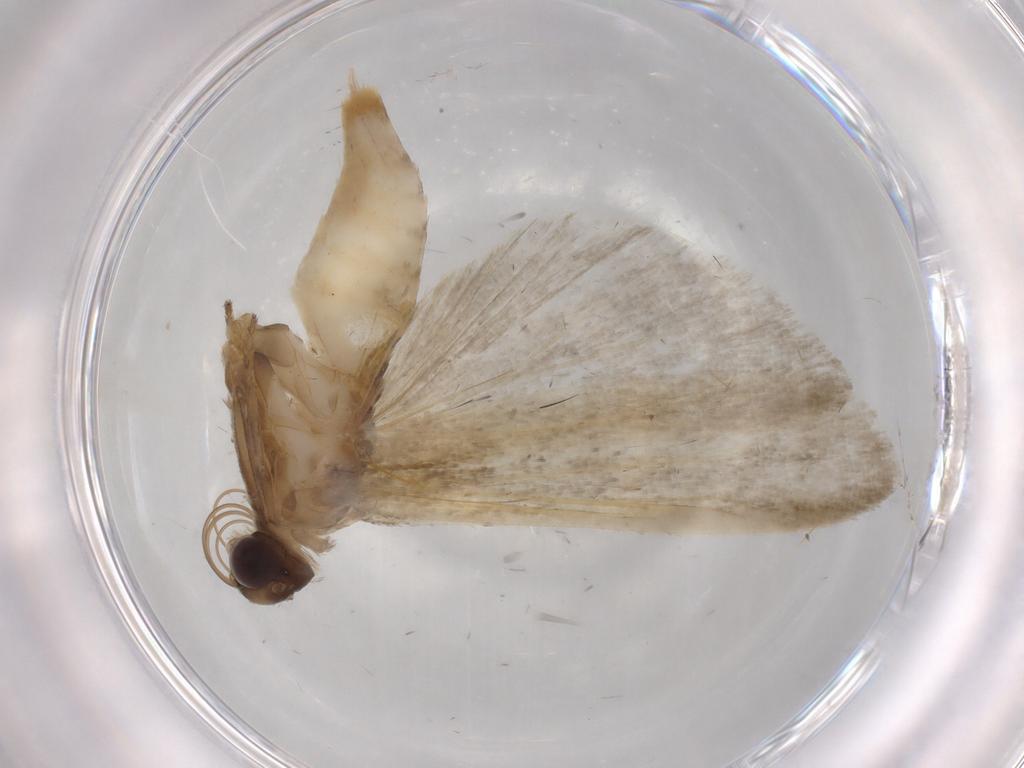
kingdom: Animalia
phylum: Arthropoda
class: Insecta
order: Lepidoptera
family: Noctuidae
